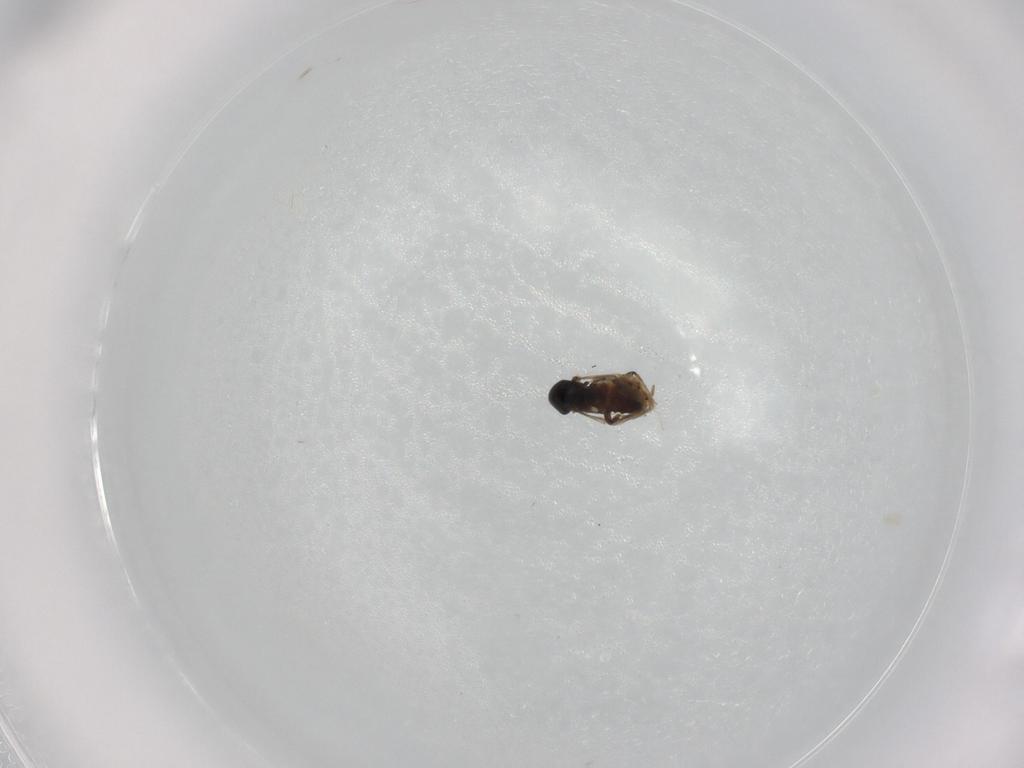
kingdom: Animalia
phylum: Arthropoda
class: Insecta
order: Diptera
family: Ceratopogonidae
